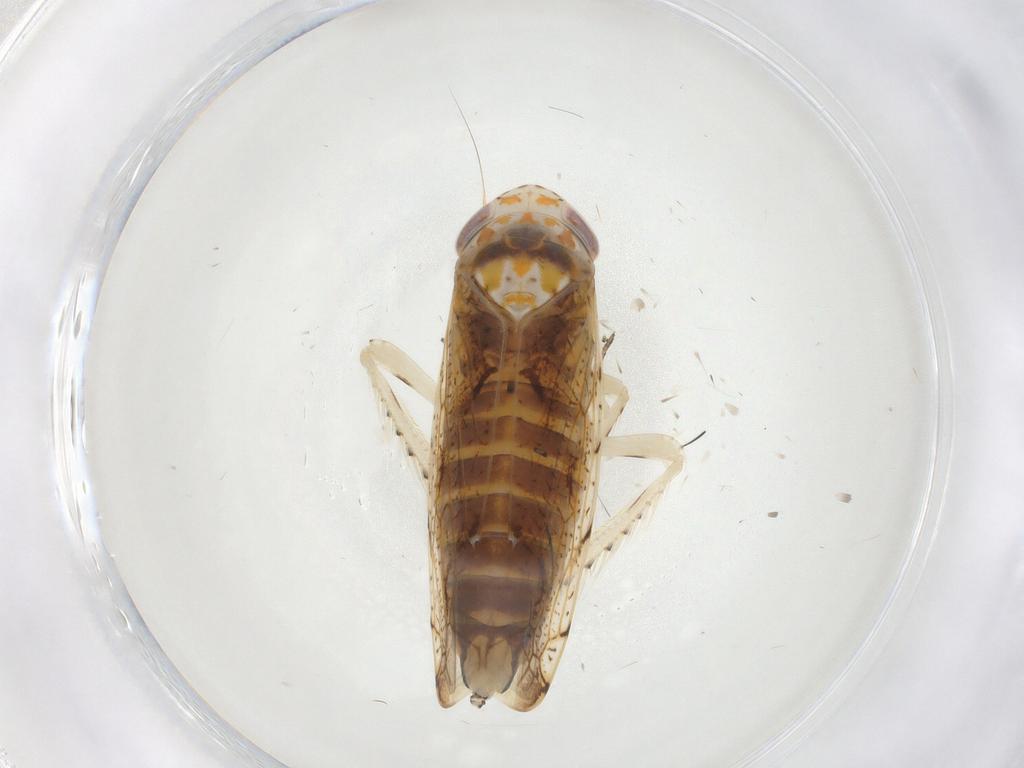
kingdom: Animalia
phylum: Arthropoda
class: Insecta
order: Hemiptera
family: Cicadellidae
